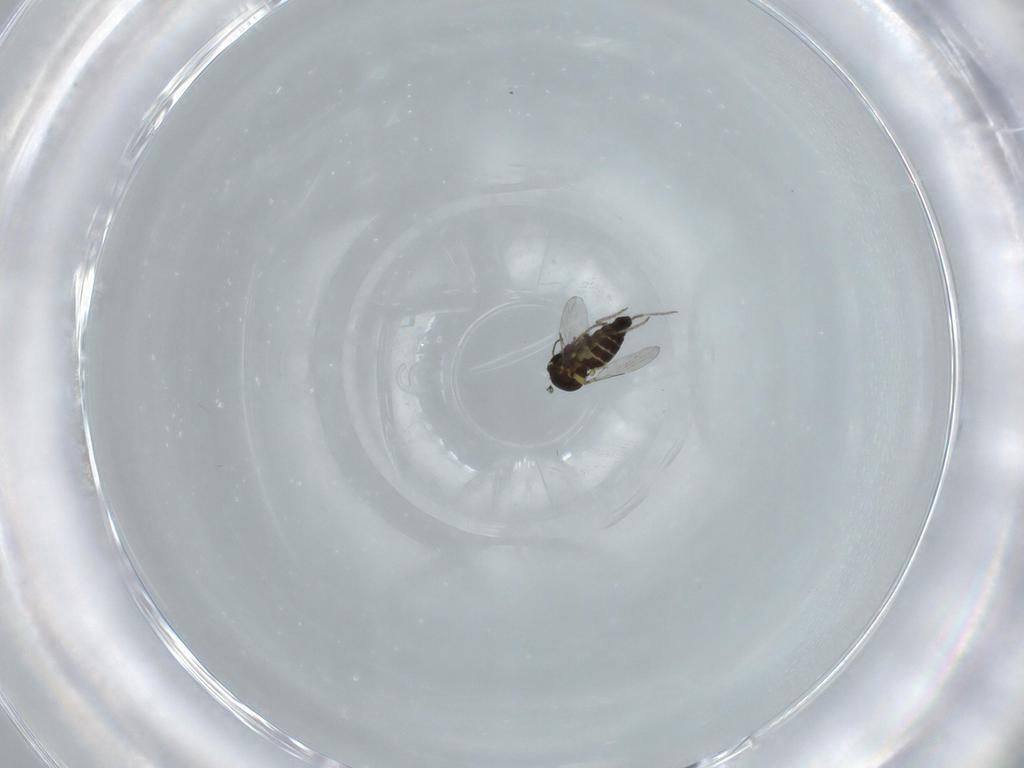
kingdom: Animalia
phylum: Arthropoda
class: Insecta
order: Diptera
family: Ceratopogonidae
